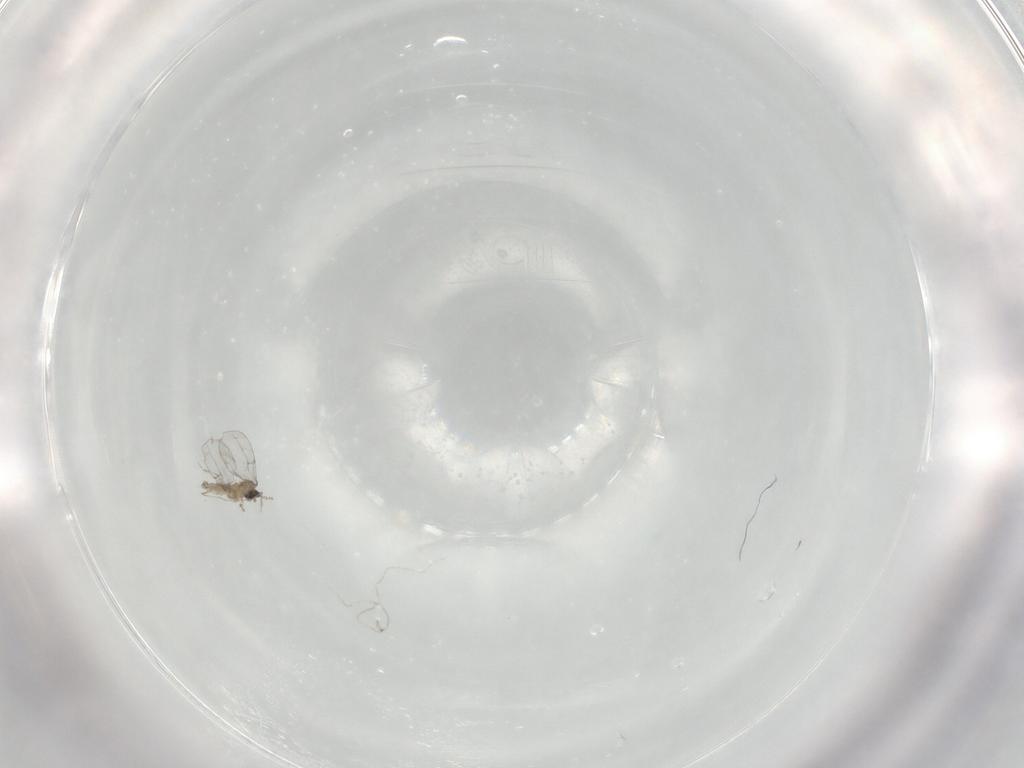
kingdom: Animalia
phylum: Arthropoda
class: Insecta
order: Diptera
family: Cecidomyiidae
